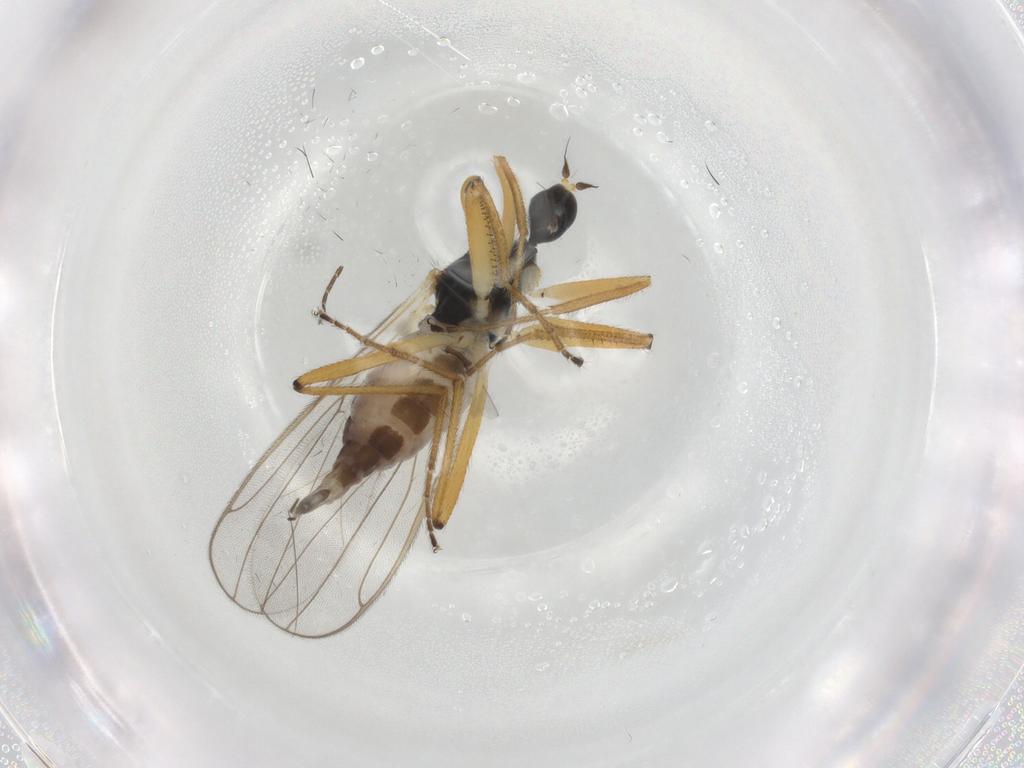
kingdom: Animalia
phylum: Arthropoda
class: Insecta
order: Diptera
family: Hybotidae
